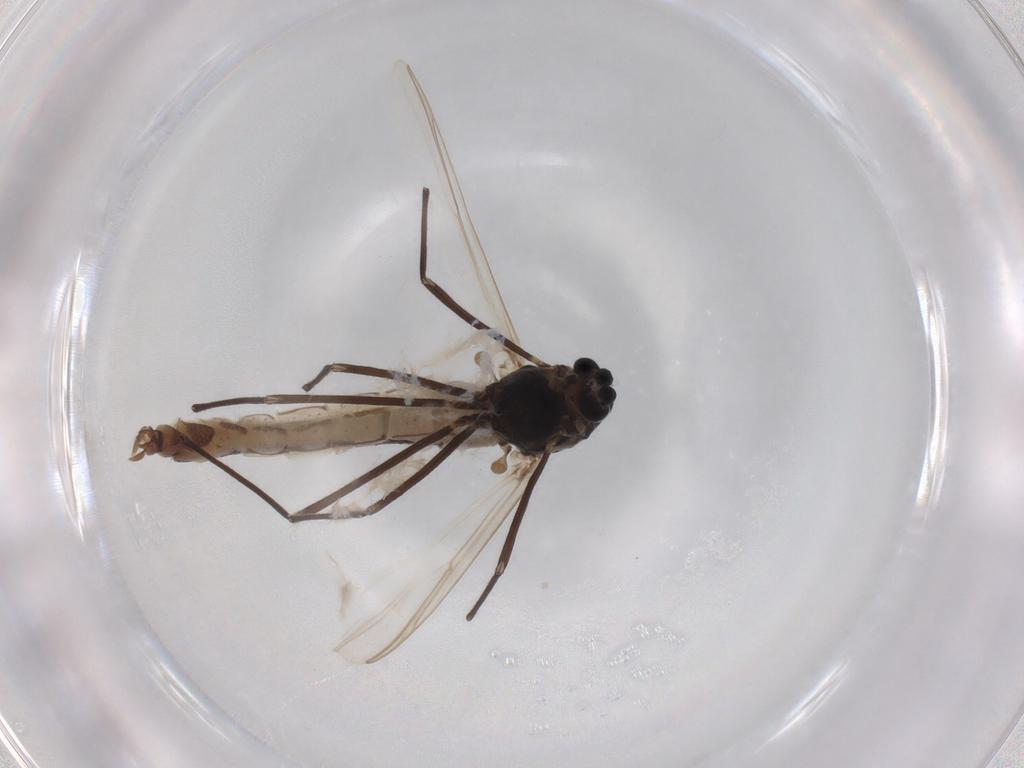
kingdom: Animalia
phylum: Arthropoda
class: Insecta
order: Diptera
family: Chironomidae
